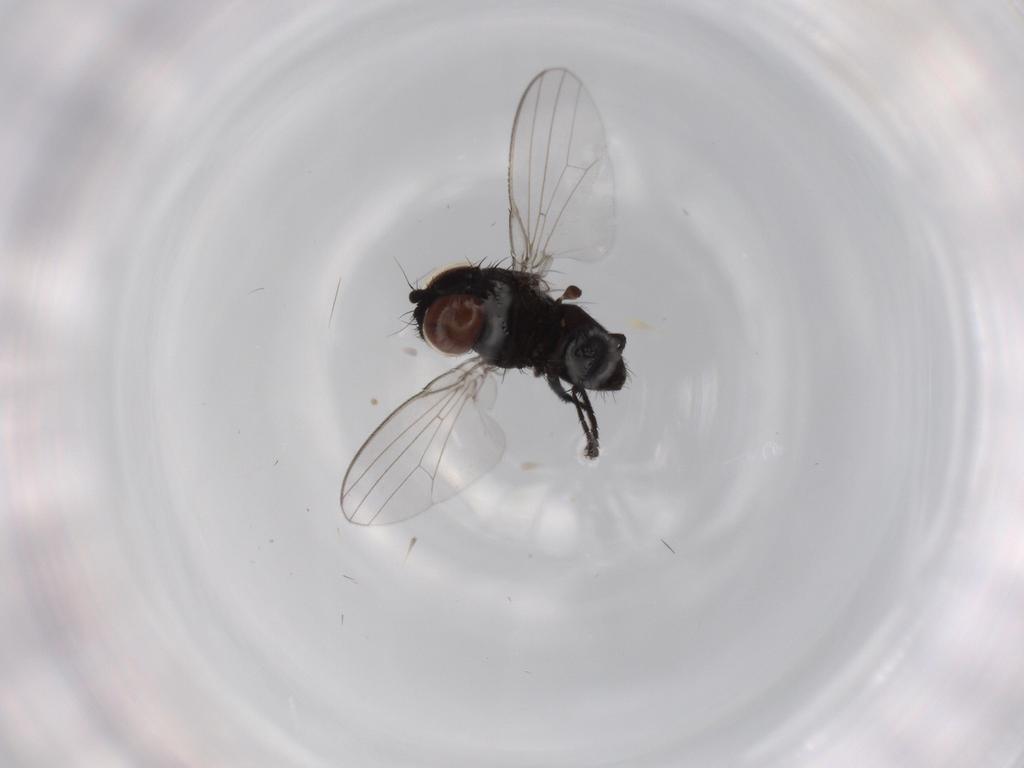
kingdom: Animalia
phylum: Arthropoda
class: Insecta
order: Diptera
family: Milichiidae
